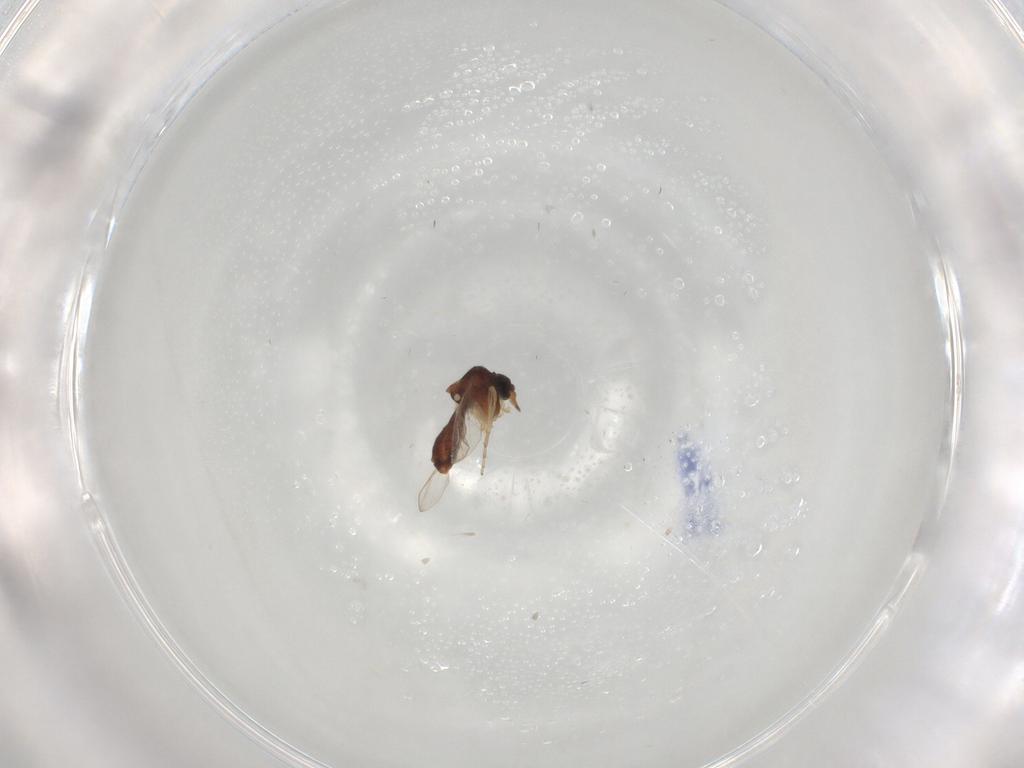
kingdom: Animalia
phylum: Arthropoda
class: Insecta
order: Diptera
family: Ceratopogonidae
